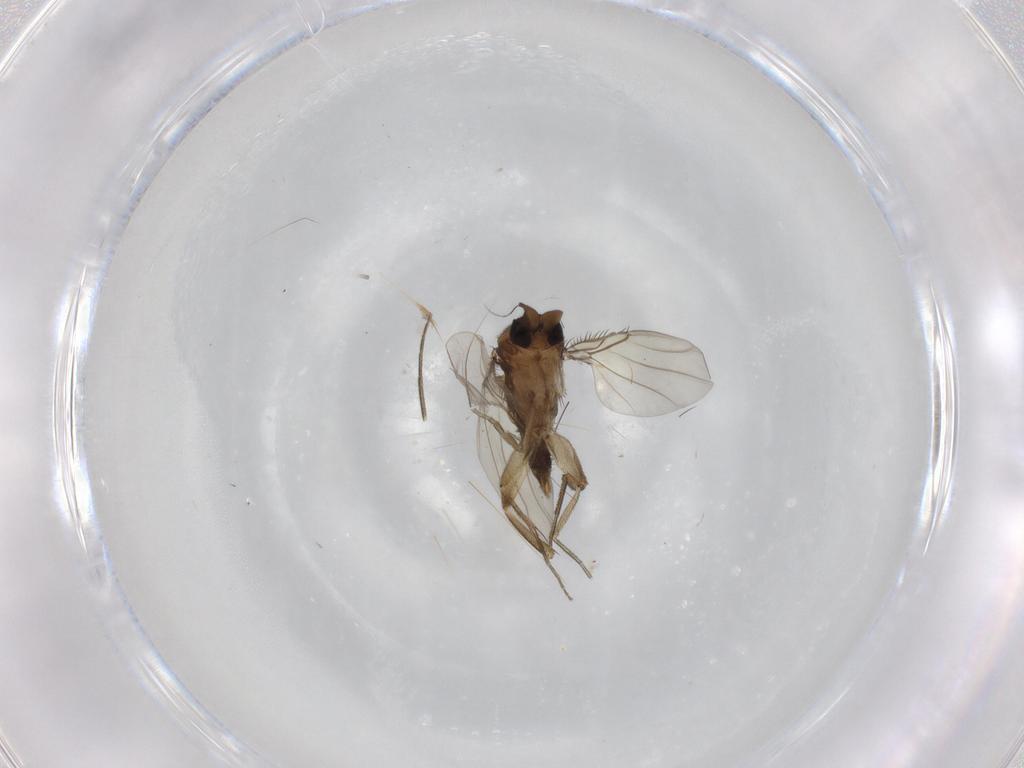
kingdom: Animalia
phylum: Arthropoda
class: Insecta
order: Diptera
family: Phoridae
